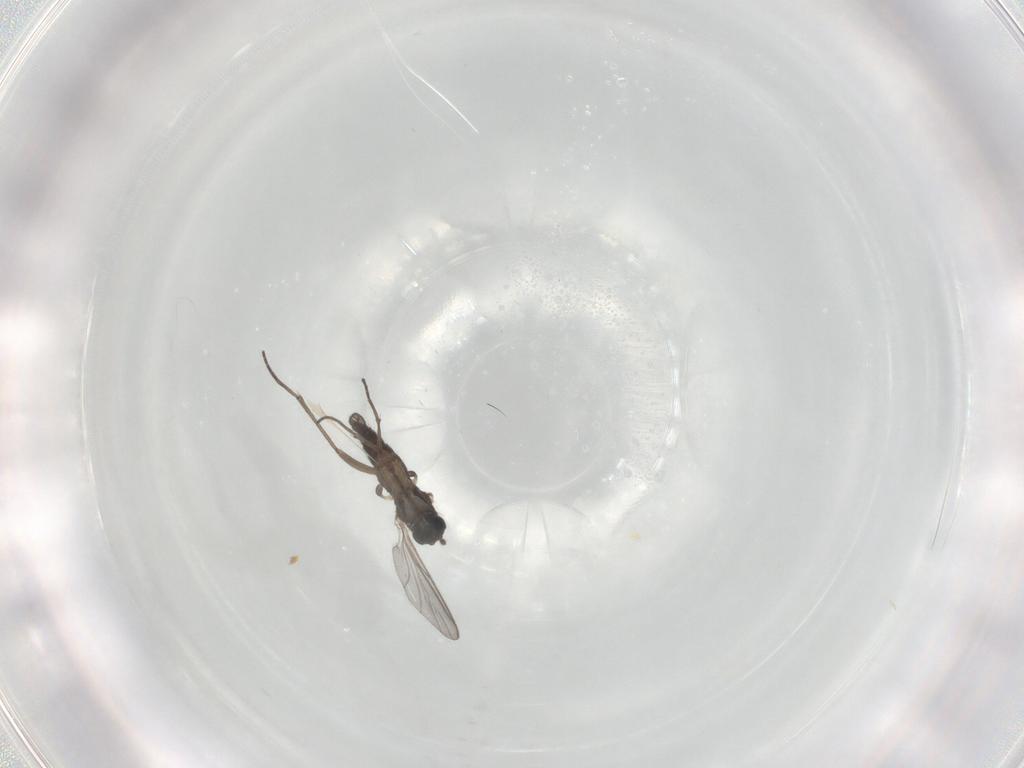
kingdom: Animalia
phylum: Arthropoda
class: Insecta
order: Diptera
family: Sciaridae
